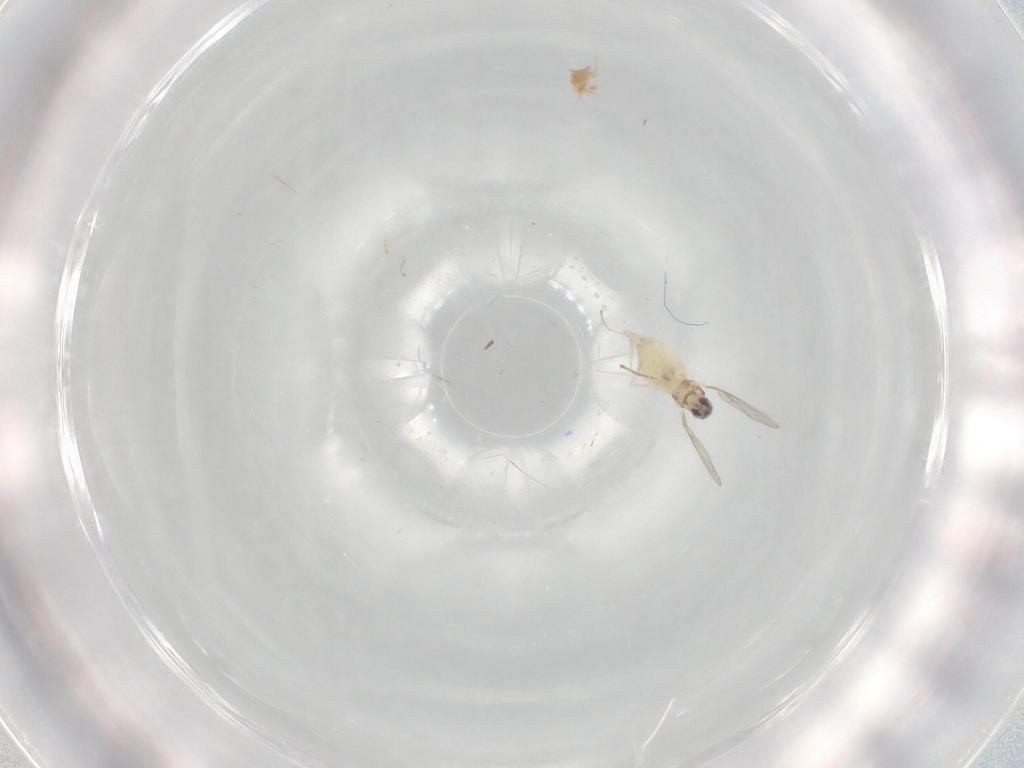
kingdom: Animalia
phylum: Arthropoda
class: Insecta
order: Diptera
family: Cecidomyiidae
